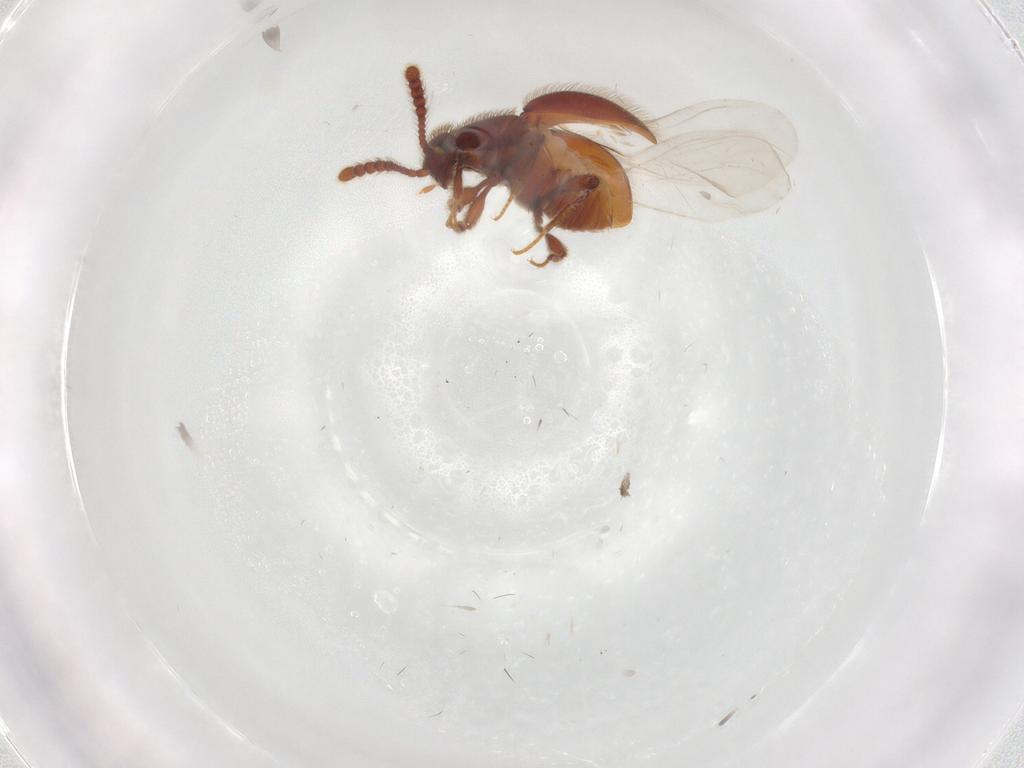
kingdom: Animalia
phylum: Arthropoda
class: Insecta
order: Coleoptera
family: Staphylinidae
